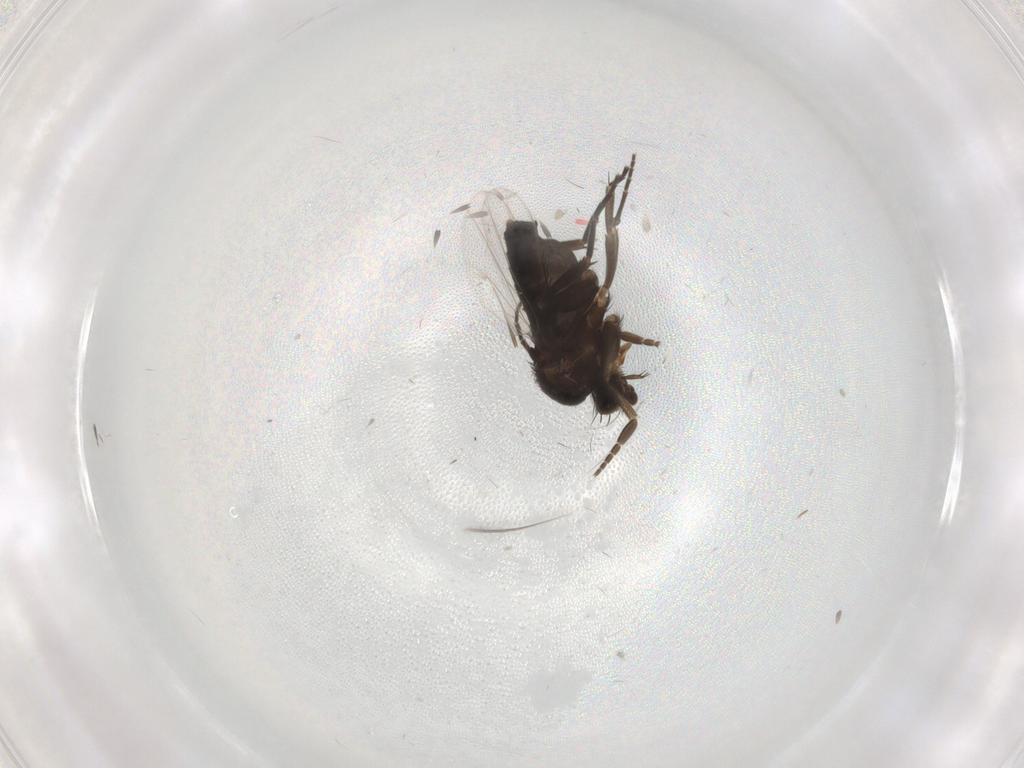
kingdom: Animalia
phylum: Arthropoda
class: Insecta
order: Diptera
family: Phoridae
